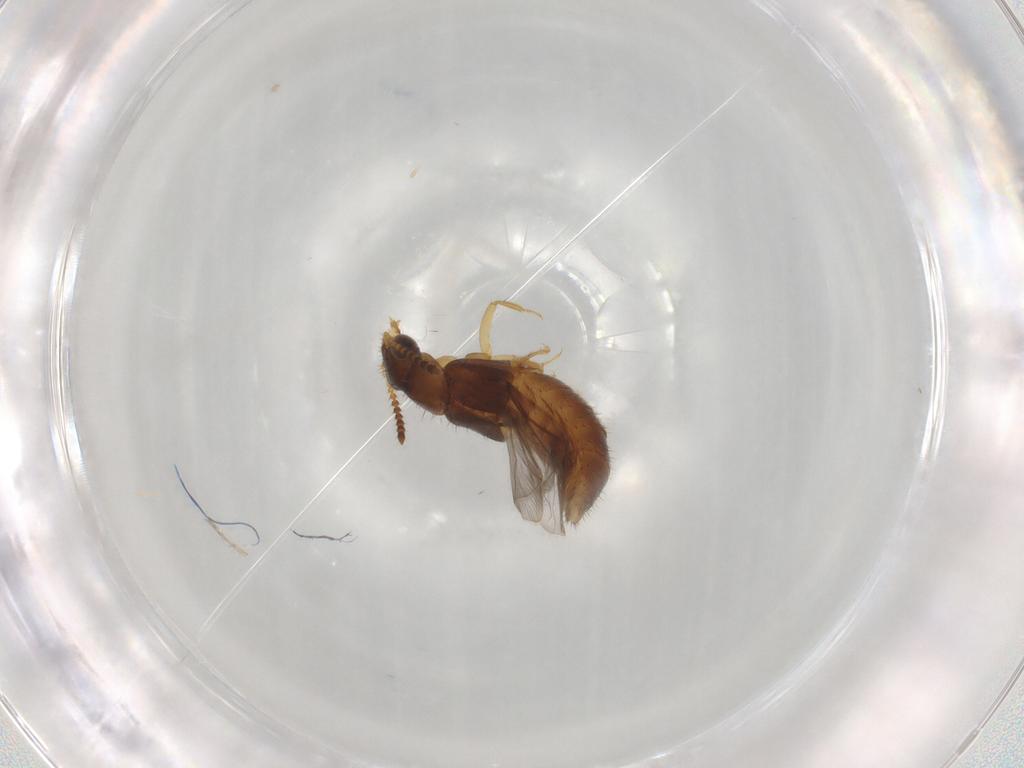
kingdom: Animalia
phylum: Arthropoda
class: Insecta
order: Coleoptera
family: Staphylinidae
